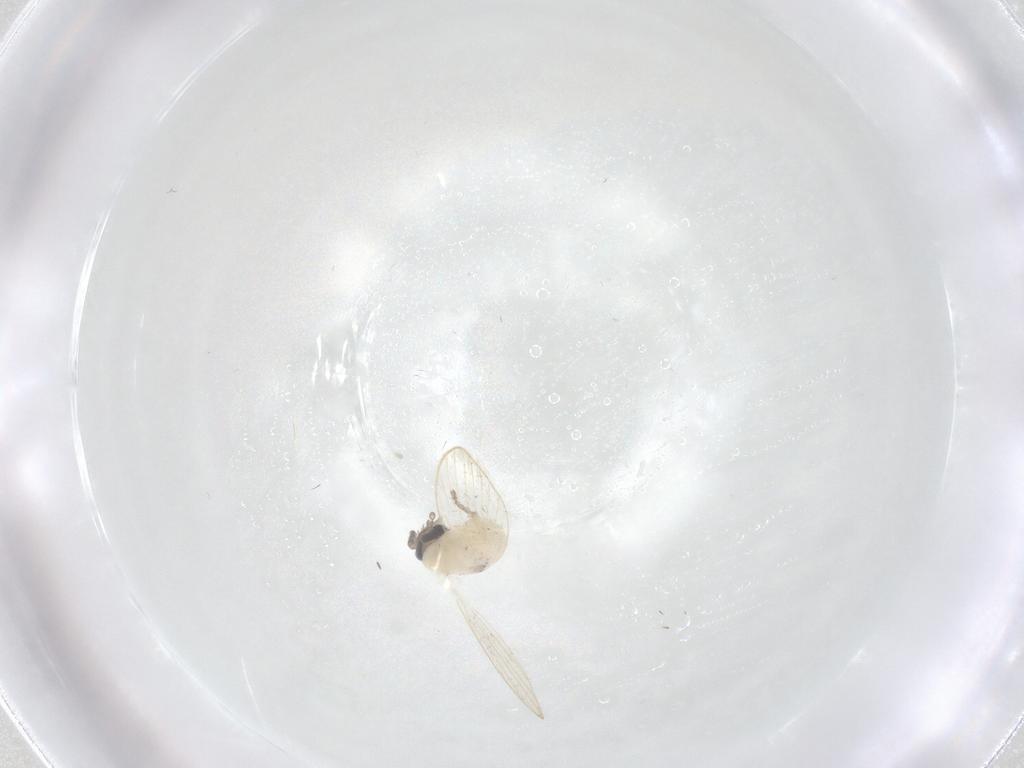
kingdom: Animalia
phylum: Arthropoda
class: Insecta
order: Diptera
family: Psychodidae
